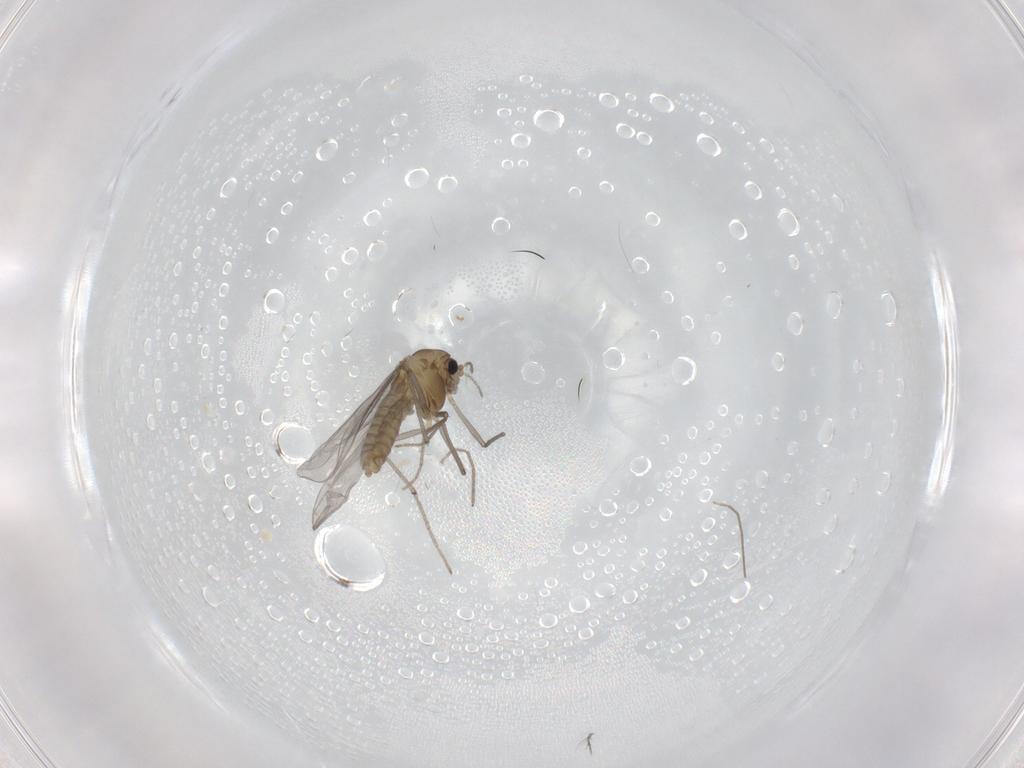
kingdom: Animalia
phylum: Arthropoda
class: Insecta
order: Diptera
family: Chironomidae
